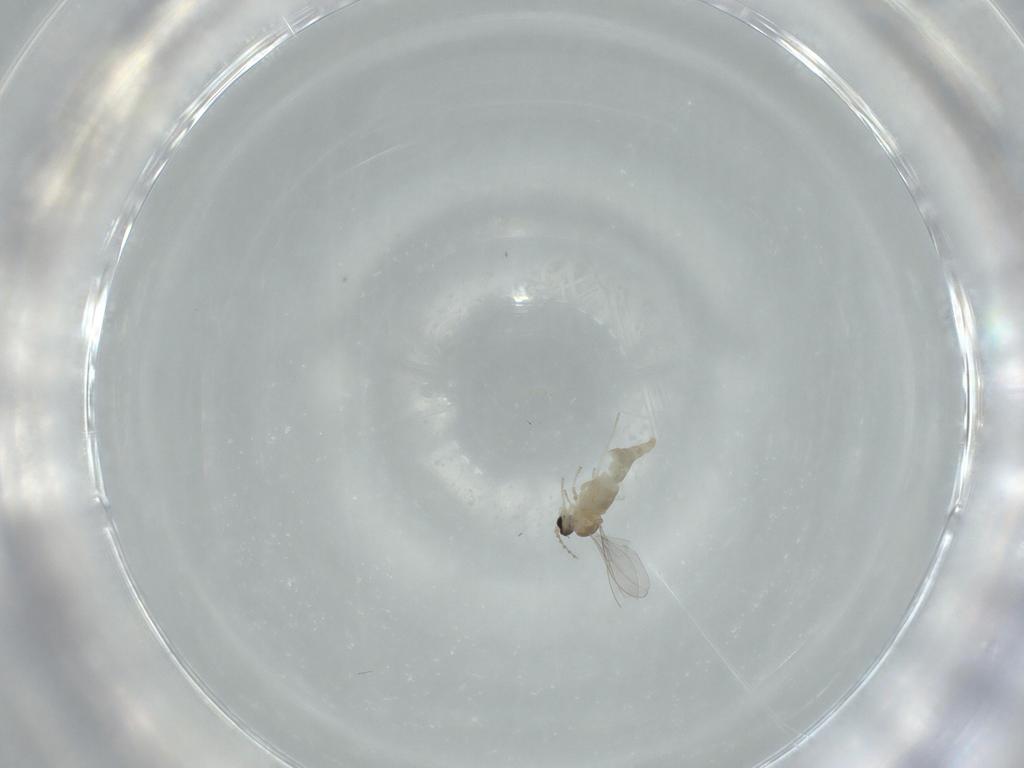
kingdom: Animalia
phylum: Arthropoda
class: Insecta
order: Diptera
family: Cecidomyiidae
